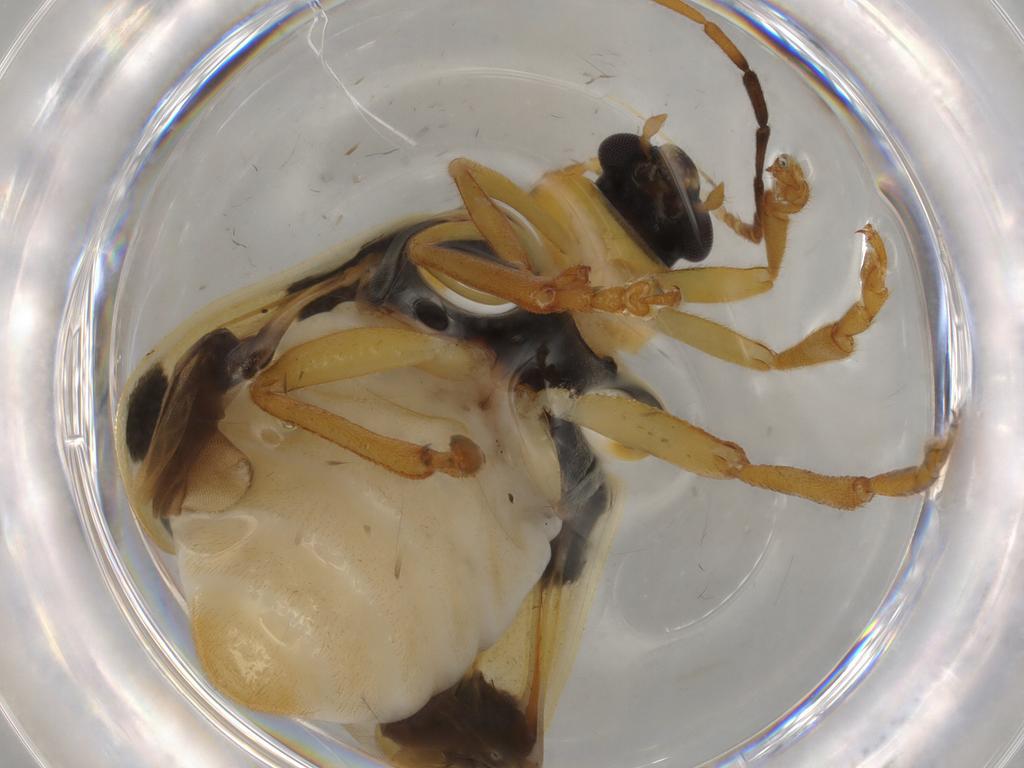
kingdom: Animalia
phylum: Arthropoda
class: Insecta
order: Coleoptera
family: Chrysomelidae
